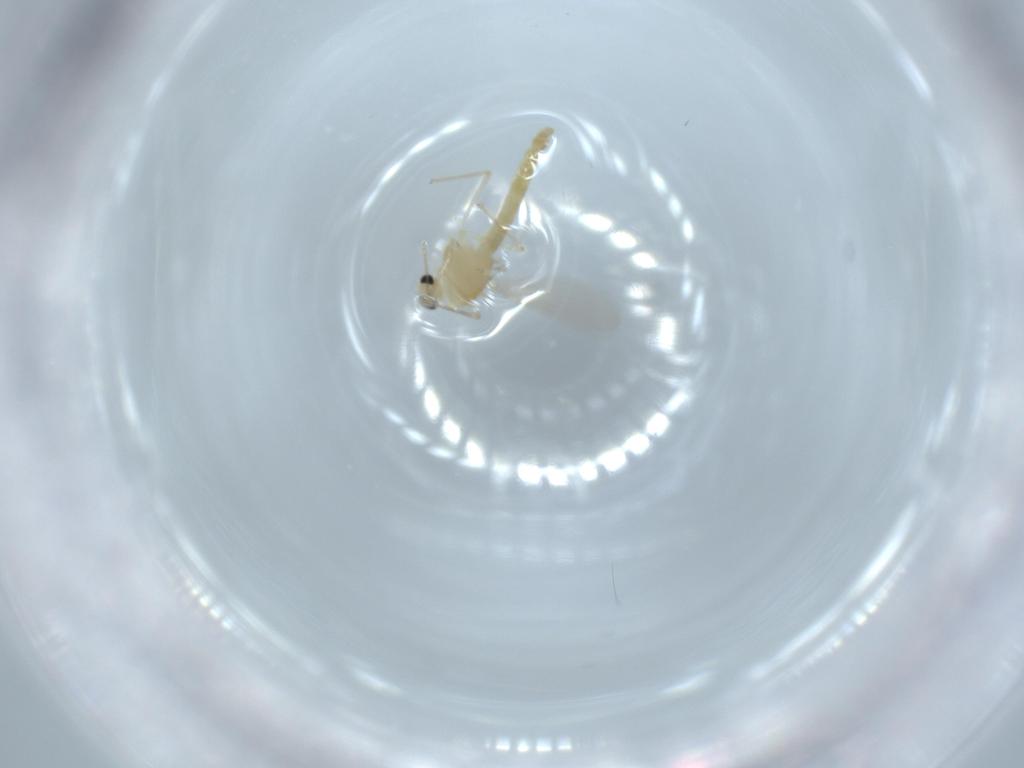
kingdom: Animalia
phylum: Arthropoda
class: Insecta
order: Diptera
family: Chironomidae
